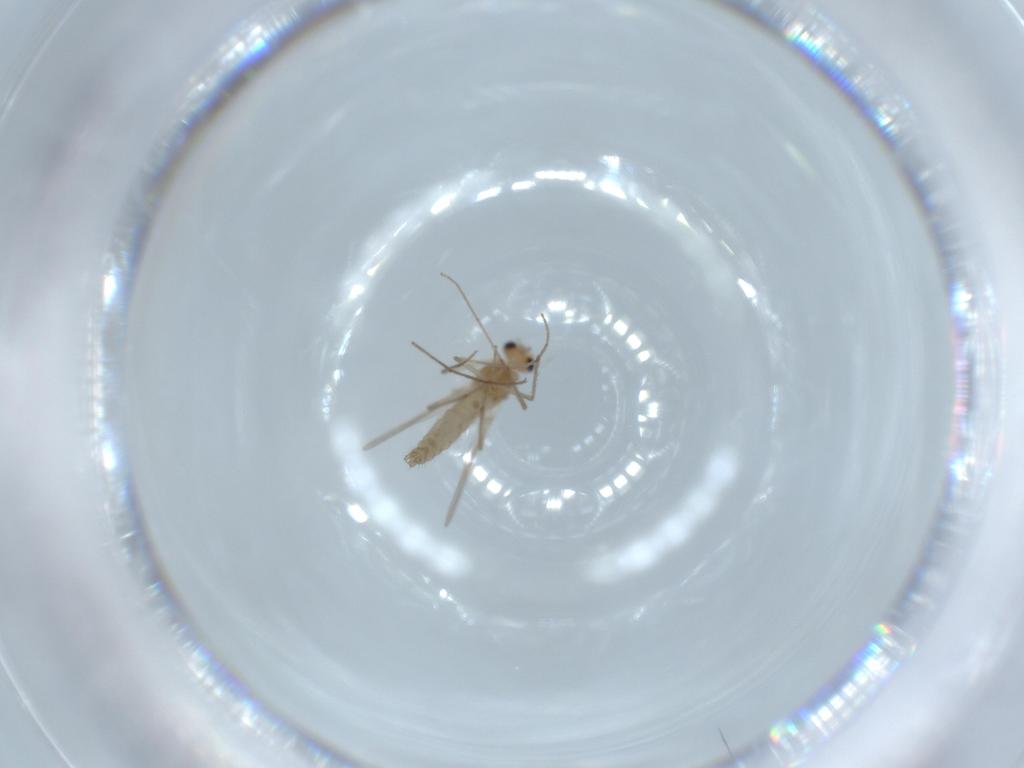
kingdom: Animalia
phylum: Arthropoda
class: Insecta
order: Diptera
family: Chironomidae
